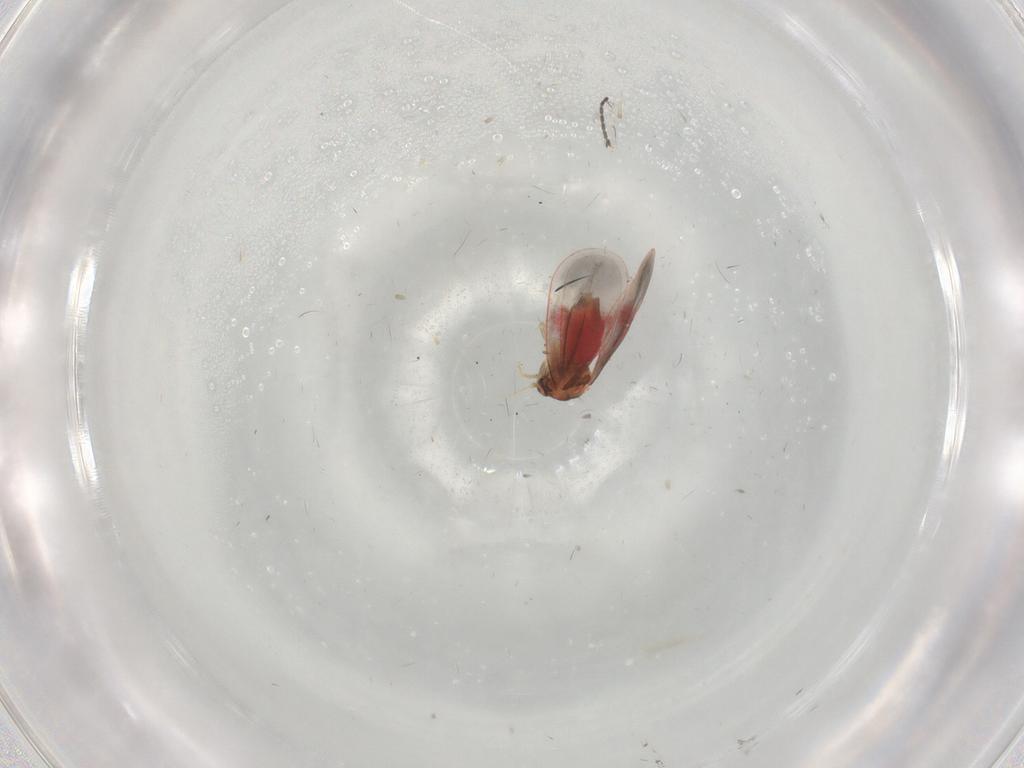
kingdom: Animalia
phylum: Arthropoda
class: Insecta
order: Hemiptera
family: Aleyrodidae
